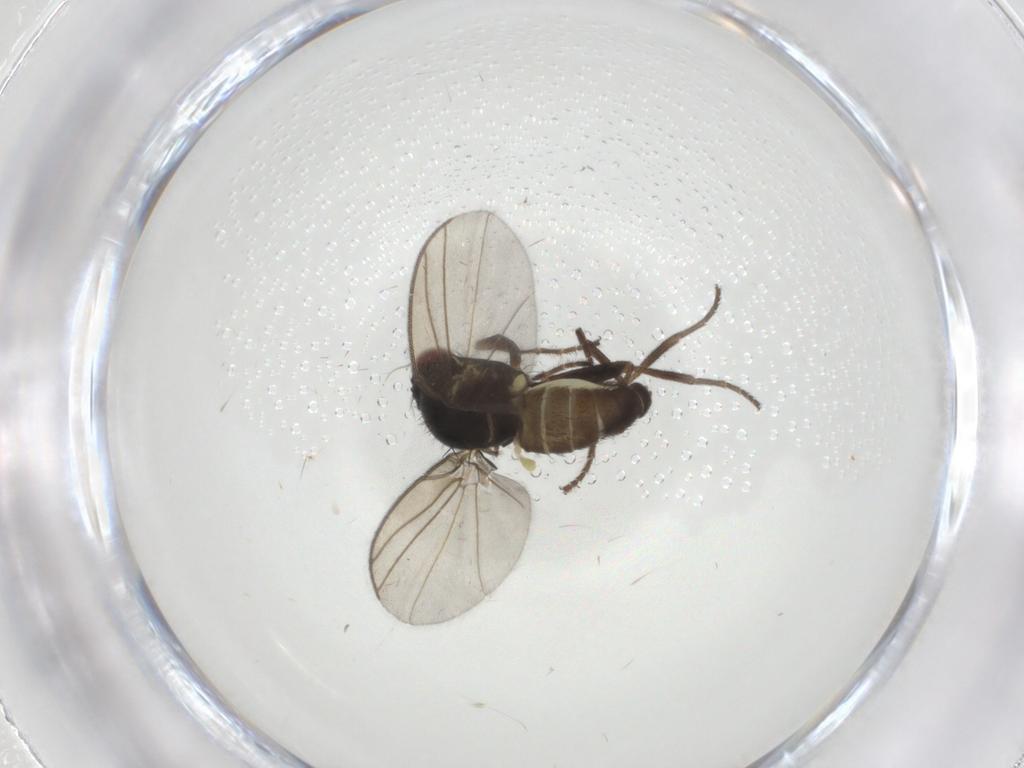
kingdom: Animalia
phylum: Arthropoda
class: Insecta
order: Diptera
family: Agromyzidae
